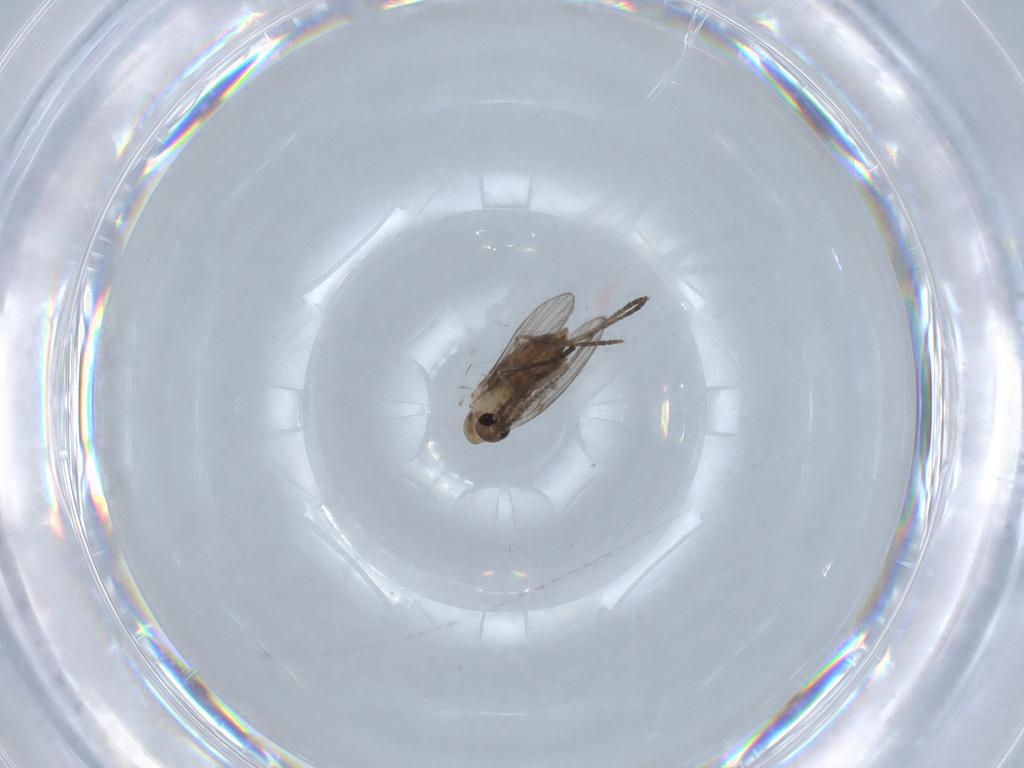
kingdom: Animalia
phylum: Arthropoda
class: Insecta
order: Diptera
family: Psychodidae
